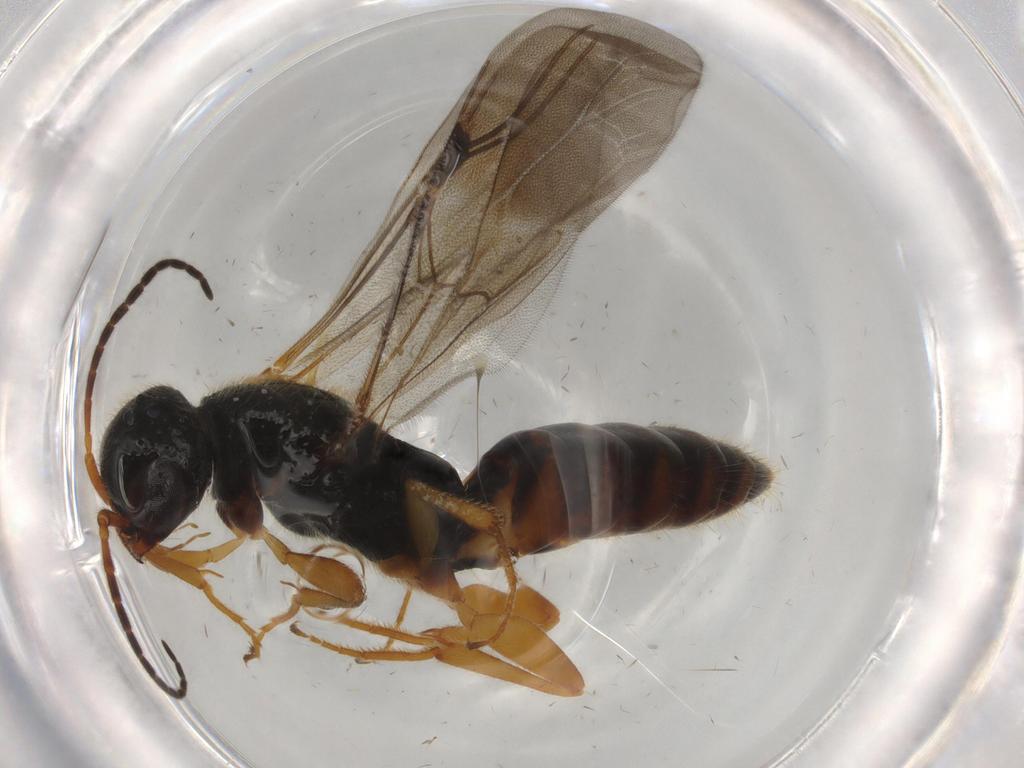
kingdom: Animalia
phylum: Arthropoda
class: Insecta
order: Hymenoptera
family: Bethylidae
